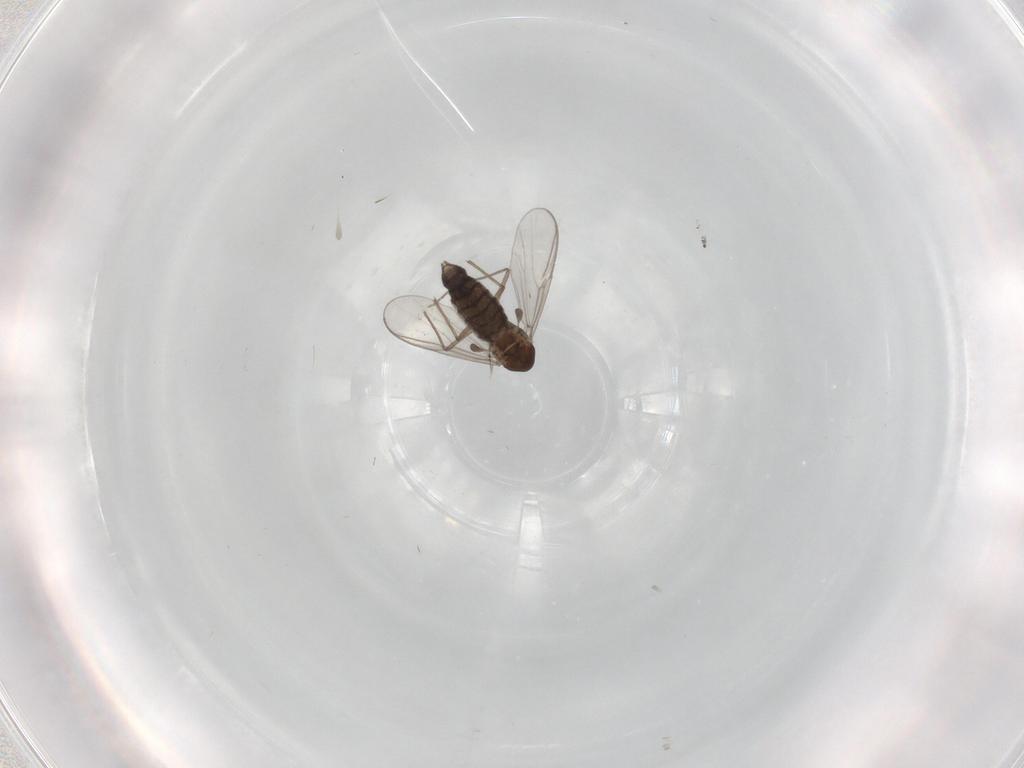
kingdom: Animalia
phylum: Arthropoda
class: Insecta
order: Diptera
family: Chironomidae
